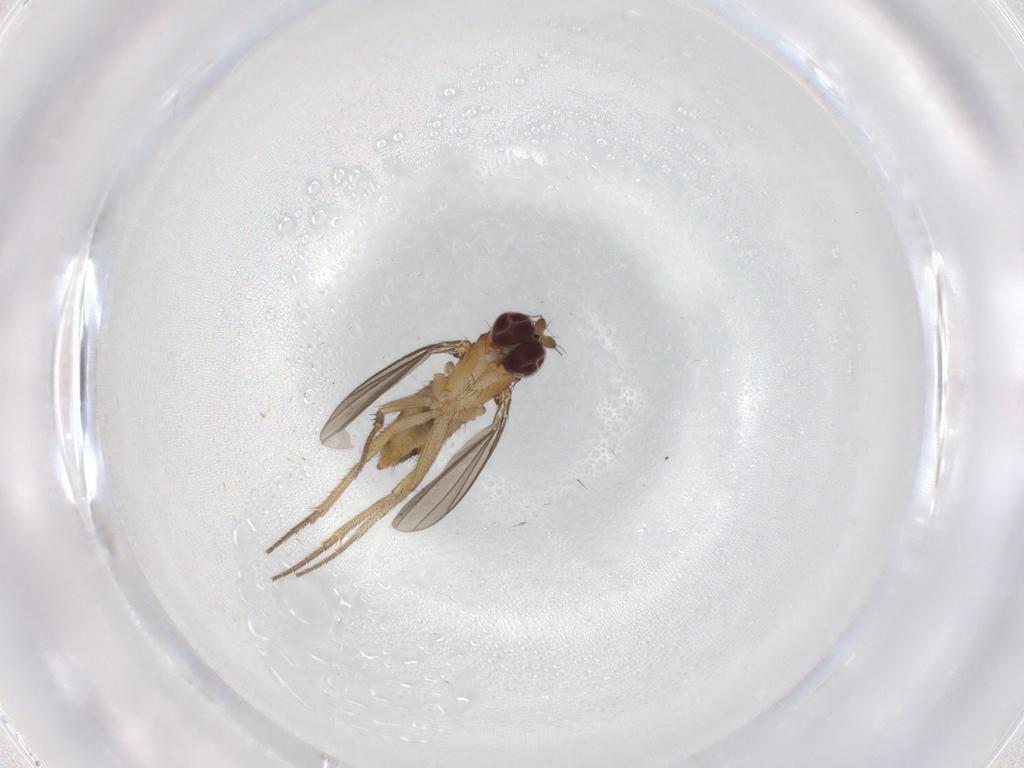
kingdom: Animalia
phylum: Arthropoda
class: Insecta
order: Diptera
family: Dolichopodidae
